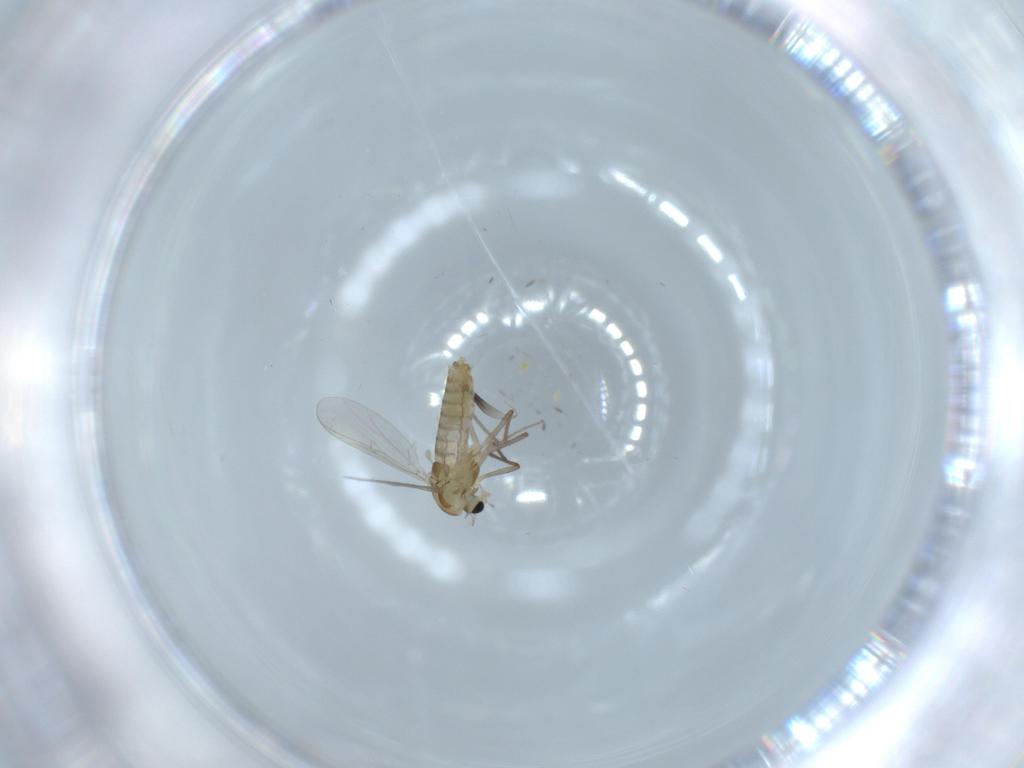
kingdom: Animalia
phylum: Arthropoda
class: Insecta
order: Diptera
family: Chironomidae
